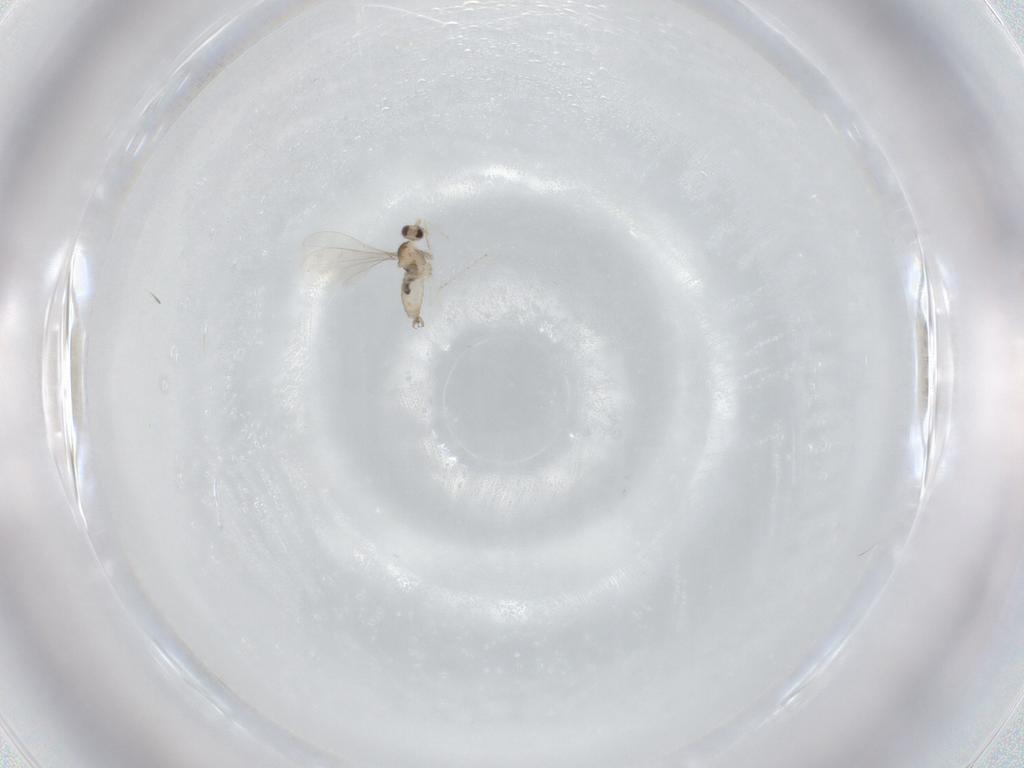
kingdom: Animalia
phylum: Arthropoda
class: Insecta
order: Diptera
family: Cecidomyiidae
